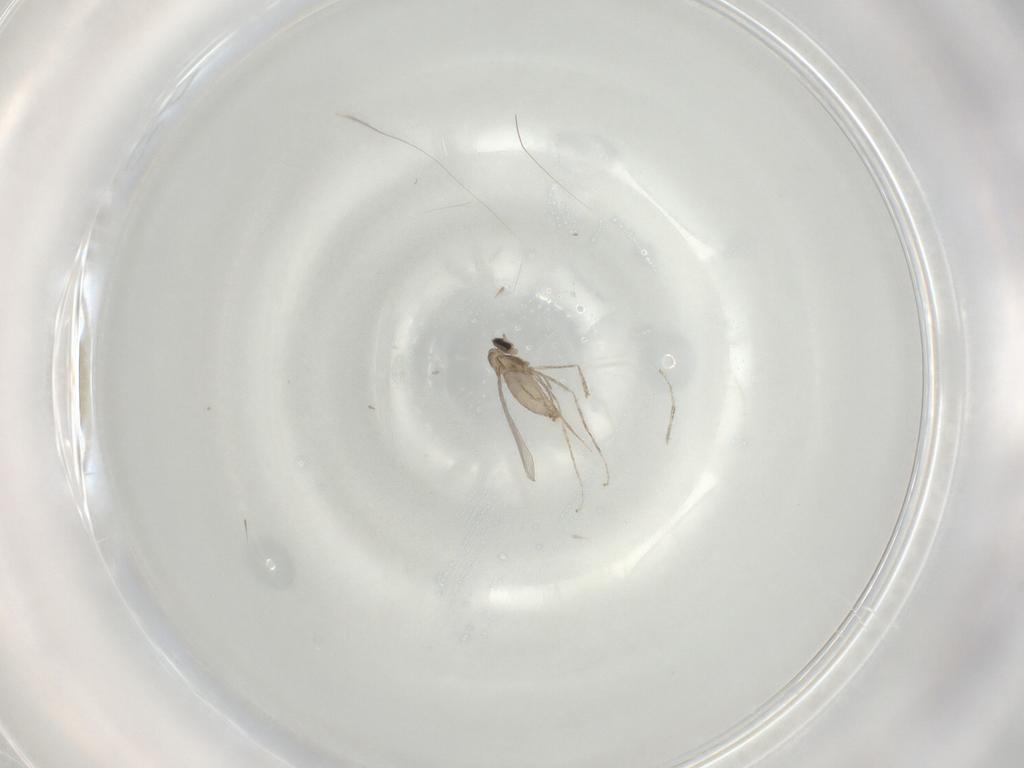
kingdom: Animalia
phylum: Arthropoda
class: Insecta
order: Diptera
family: Cecidomyiidae
